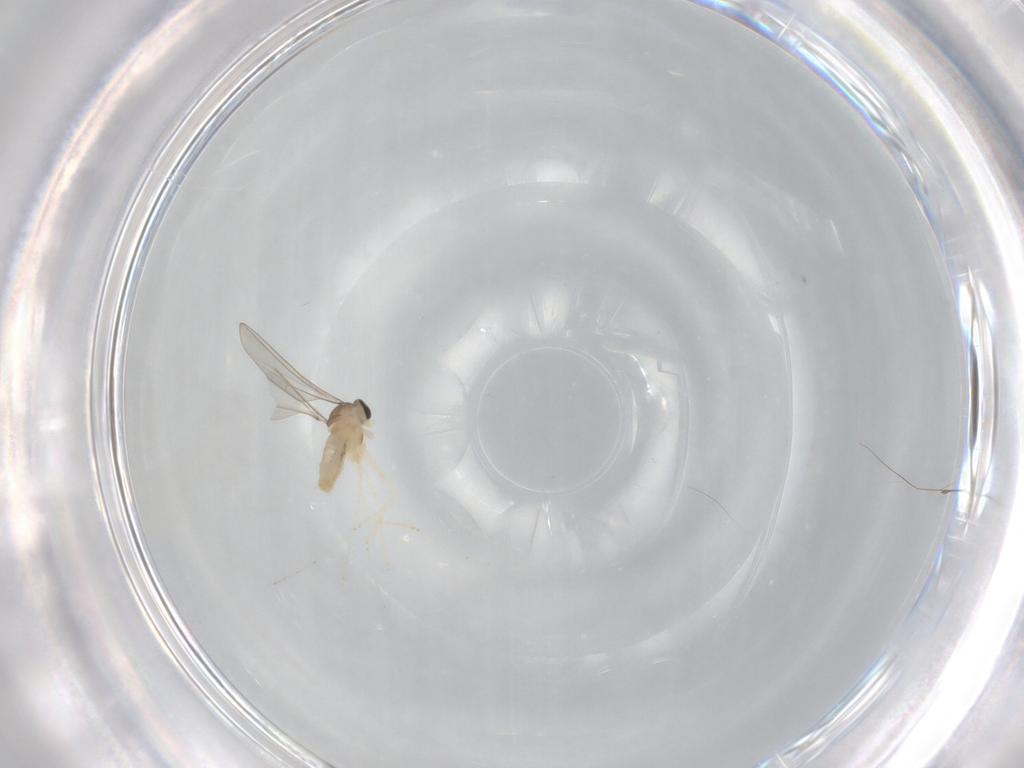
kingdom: Animalia
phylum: Arthropoda
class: Insecta
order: Diptera
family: Cecidomyiidae
